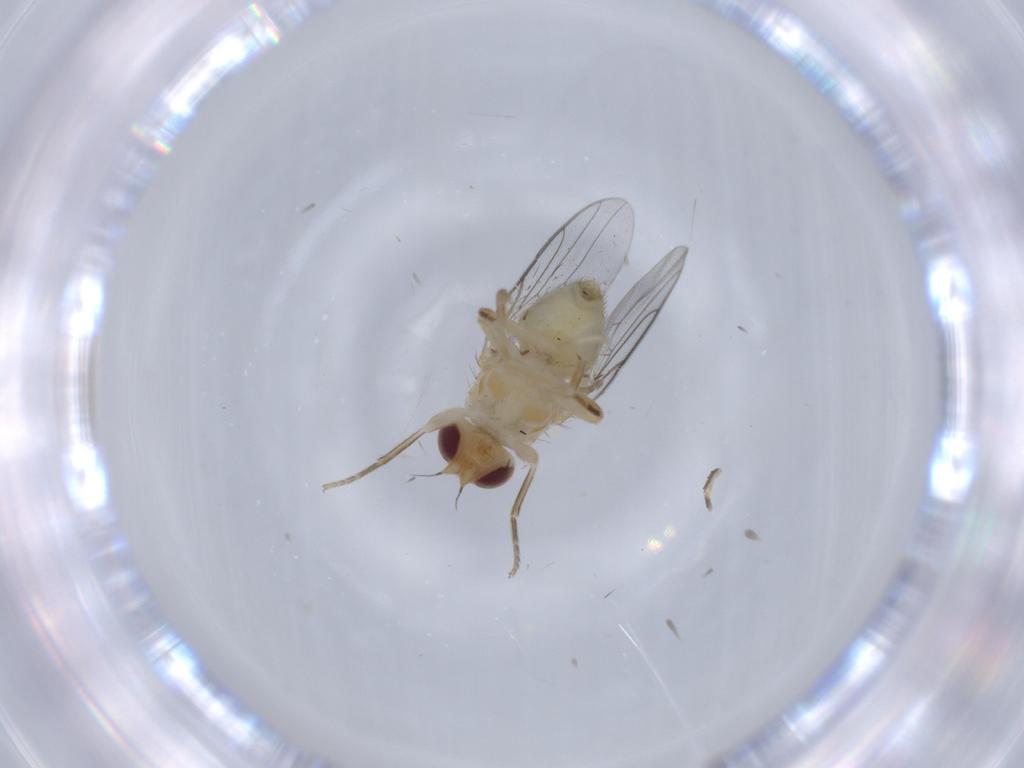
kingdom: Animalia
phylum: Arthropoda
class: Insecta
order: Diptera
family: Chloropidae
